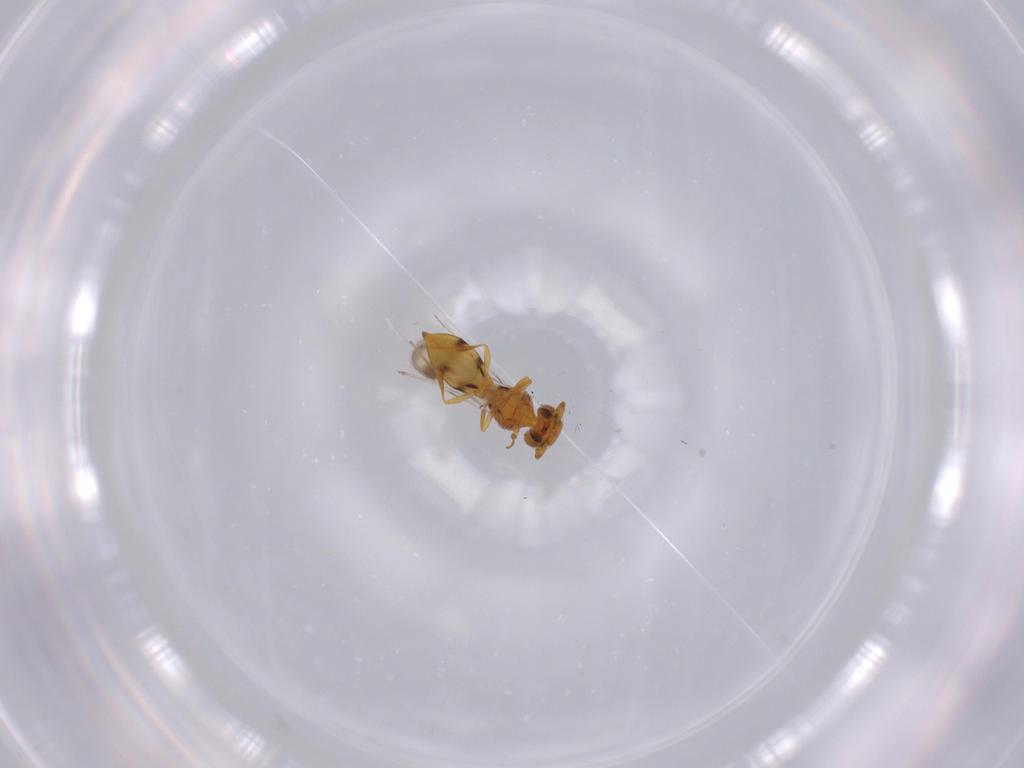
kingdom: Animalia
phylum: Arthropoda
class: Insecta
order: Hymenoptera
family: Scelionidae
